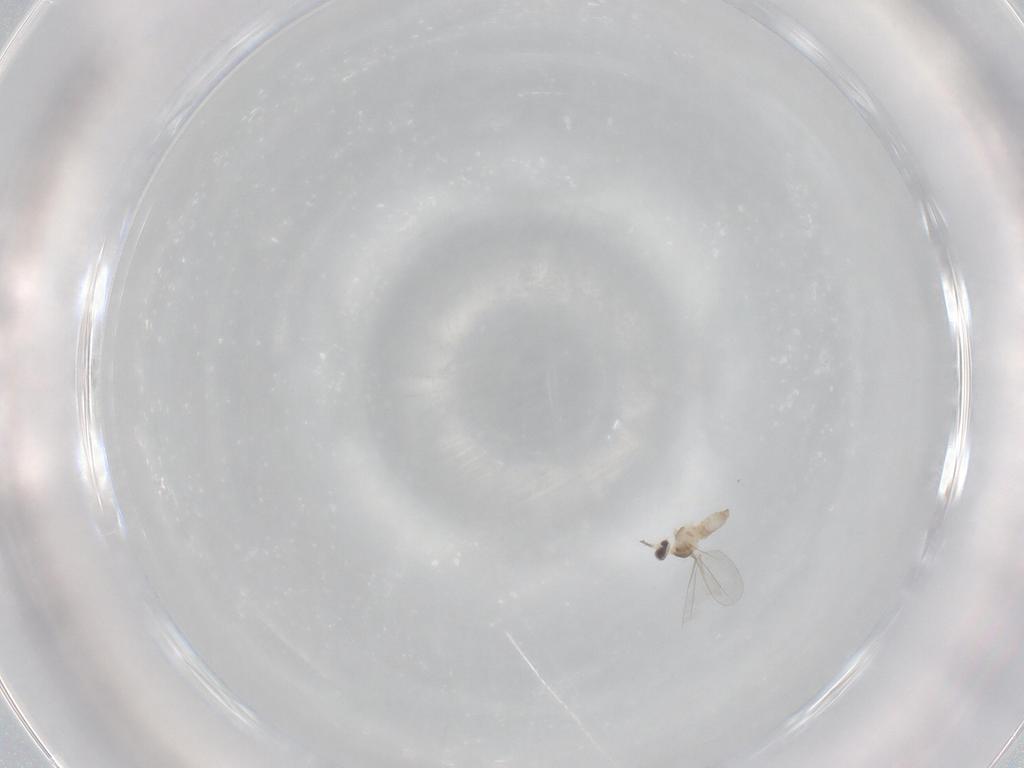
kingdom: Animalia
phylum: Arthropoda
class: Insecta
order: Diptera
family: Cecidomyiidae
